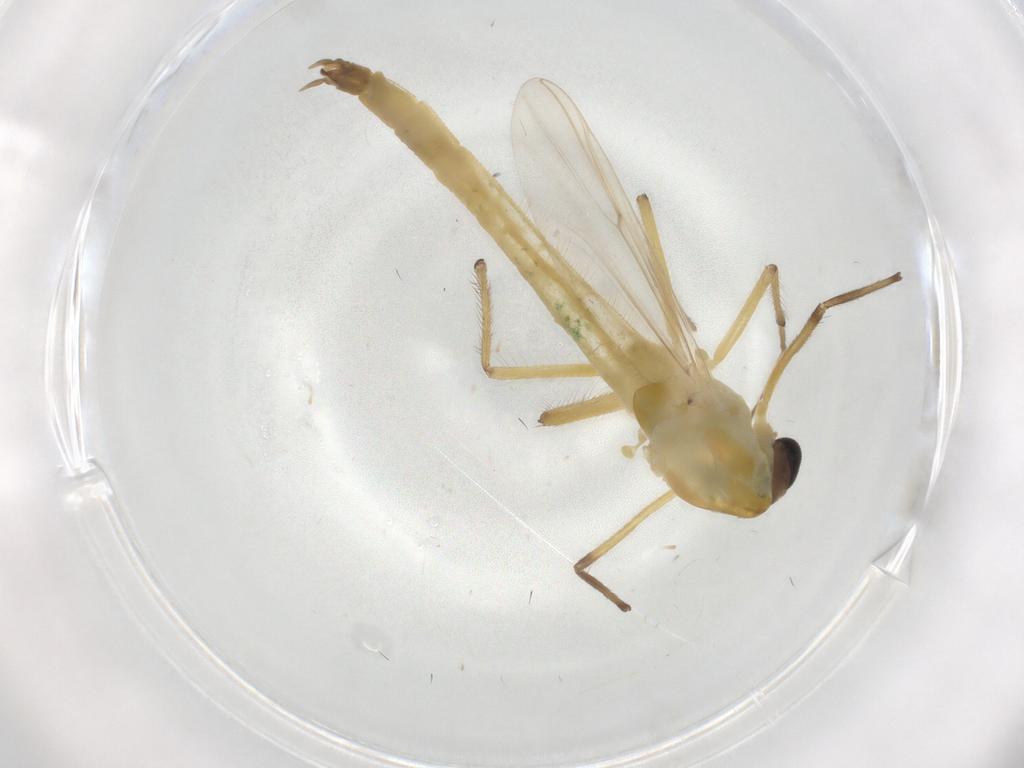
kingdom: Animalia
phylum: Arthropoda
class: Insecta
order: Diptera
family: Chironomidae
